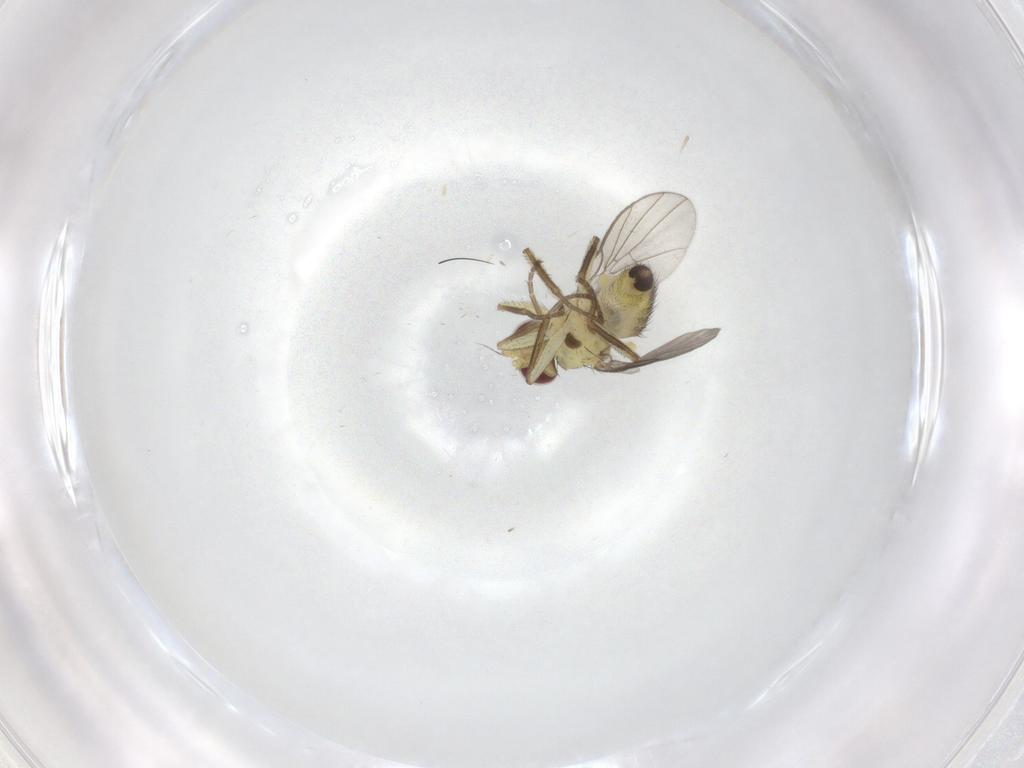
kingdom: Animalia
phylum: Arthropoda
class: Insecta
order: Diptera
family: Agromyzidae
